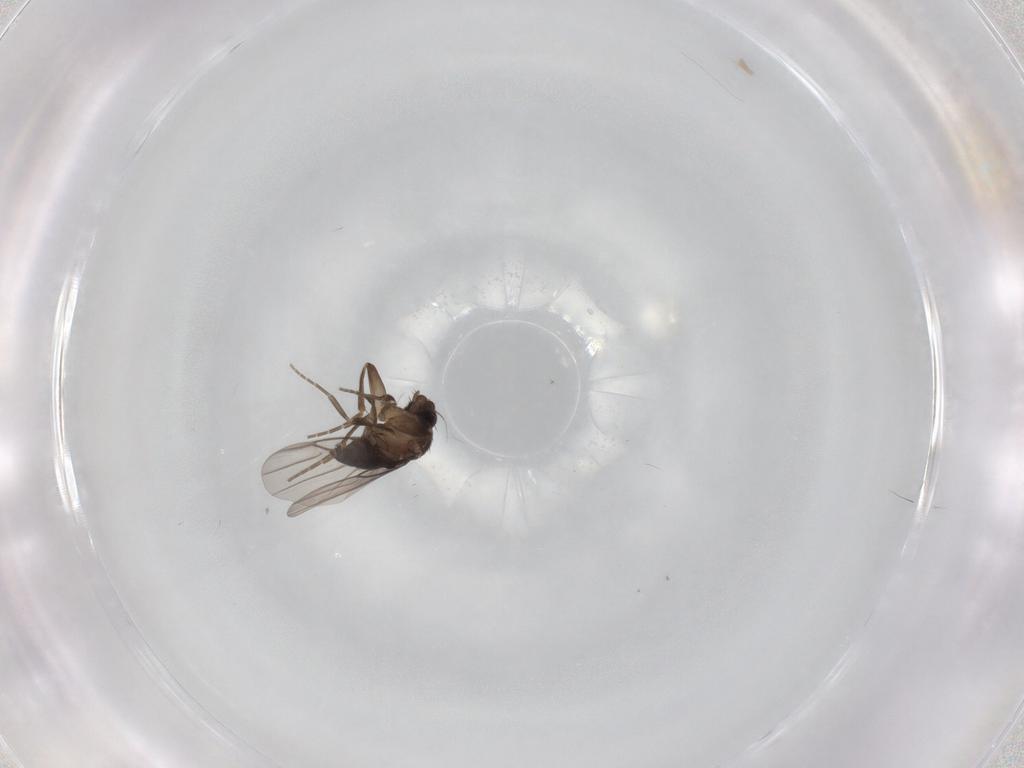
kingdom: Animalia
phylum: Arthropoda
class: Insecta
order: Diptera
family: Phoridae
